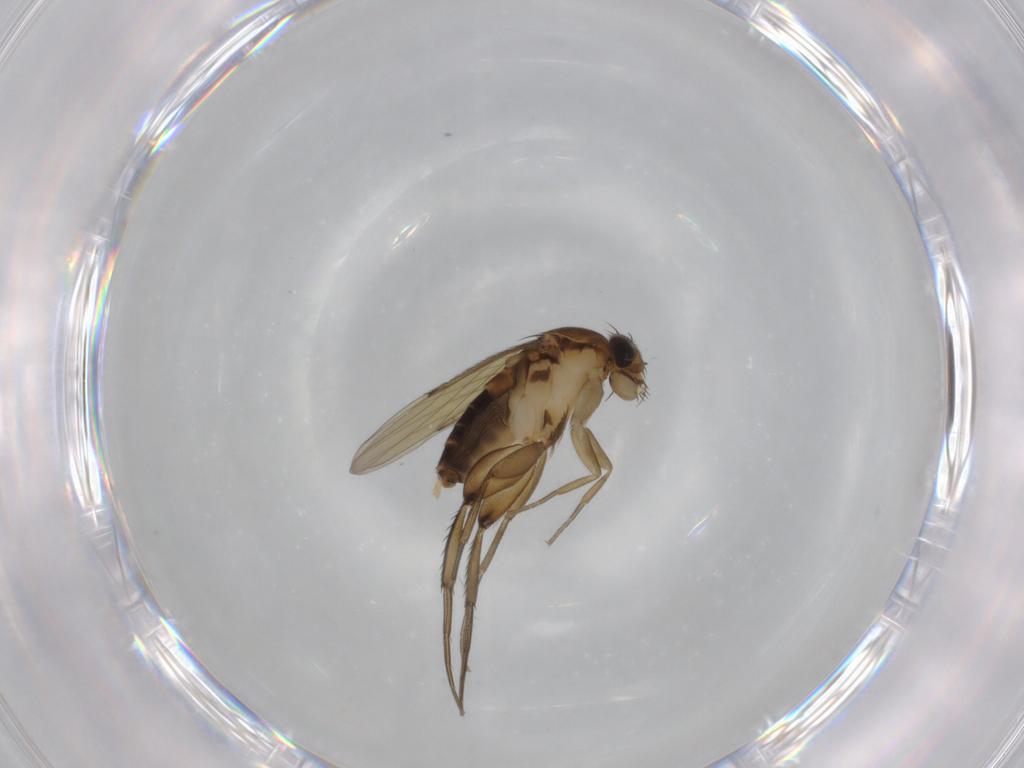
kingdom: Animalia
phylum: Arthropoda
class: Insecta
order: Diptera
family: Phoridae
